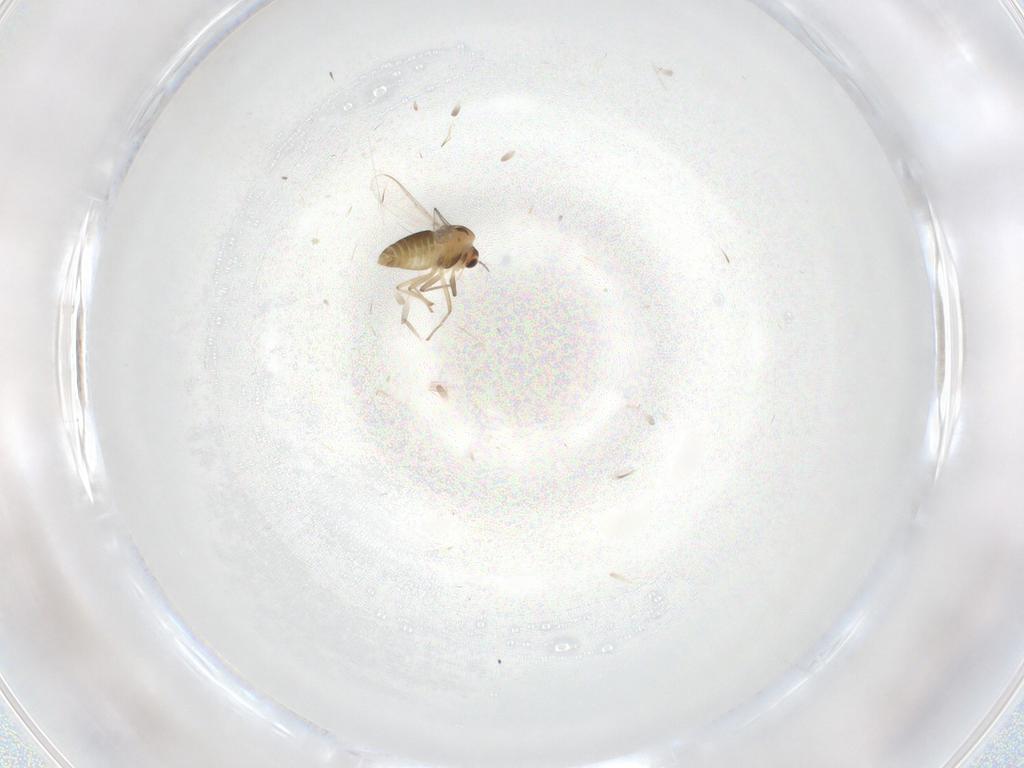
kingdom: Animalia
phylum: Arthropoda
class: Insecta
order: Diptera
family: Chironomidae
